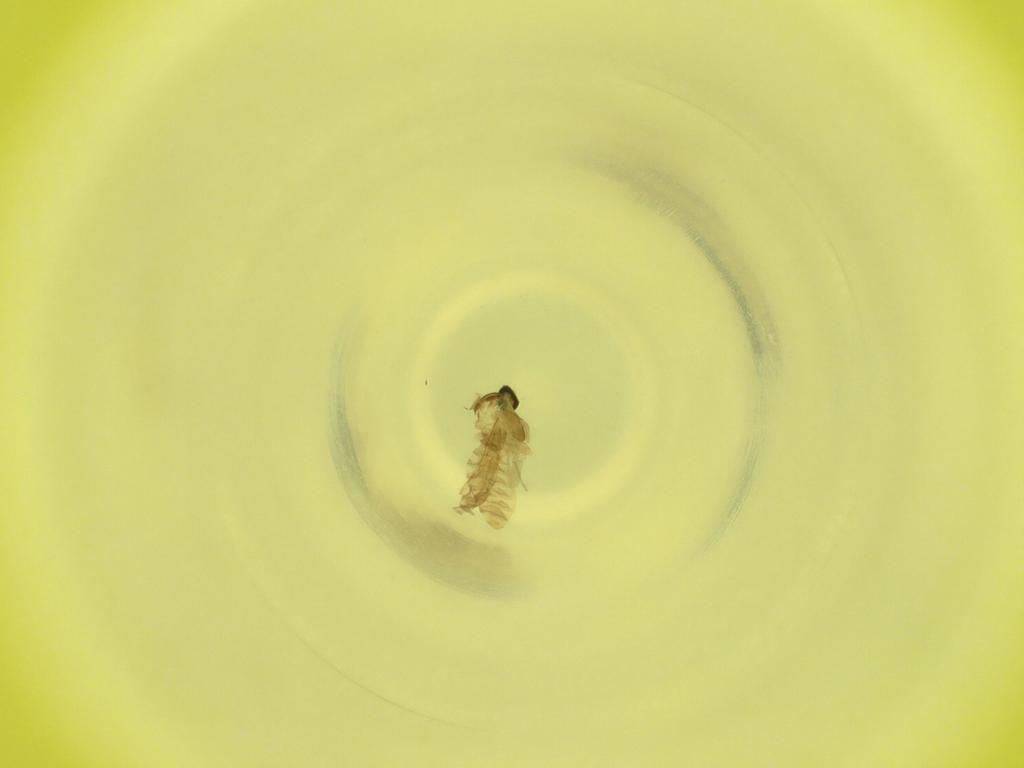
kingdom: Animalia
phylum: Arthropoda
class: Insecta
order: Diptera
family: Cecidomyiidae
